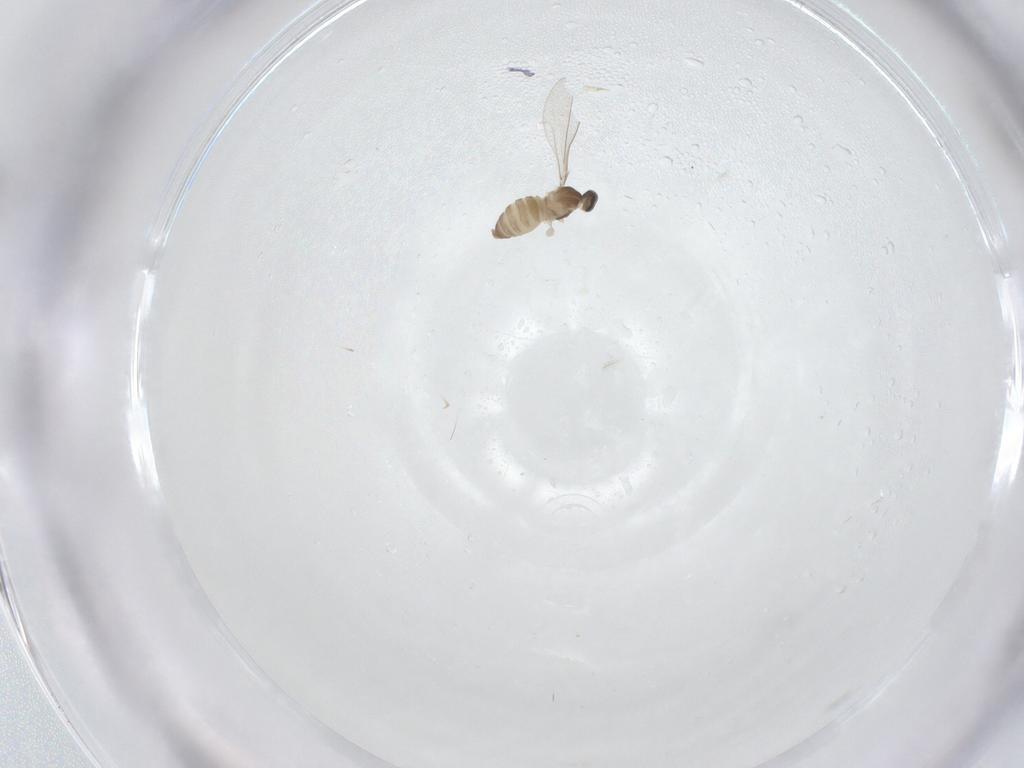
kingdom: Animalia
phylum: Arthropoda
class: Insecta
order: Diptera
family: Cecidomyiidae
